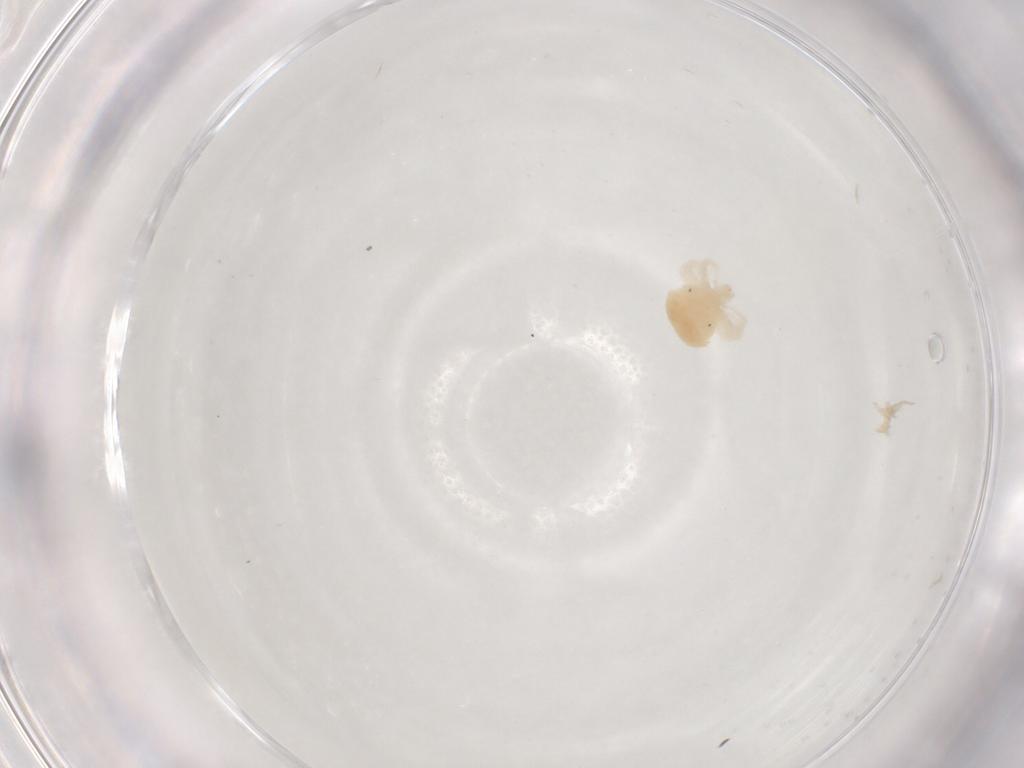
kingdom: Animalia
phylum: Arthropoda
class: Arachnida
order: Trombidiformes
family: Anystidae
